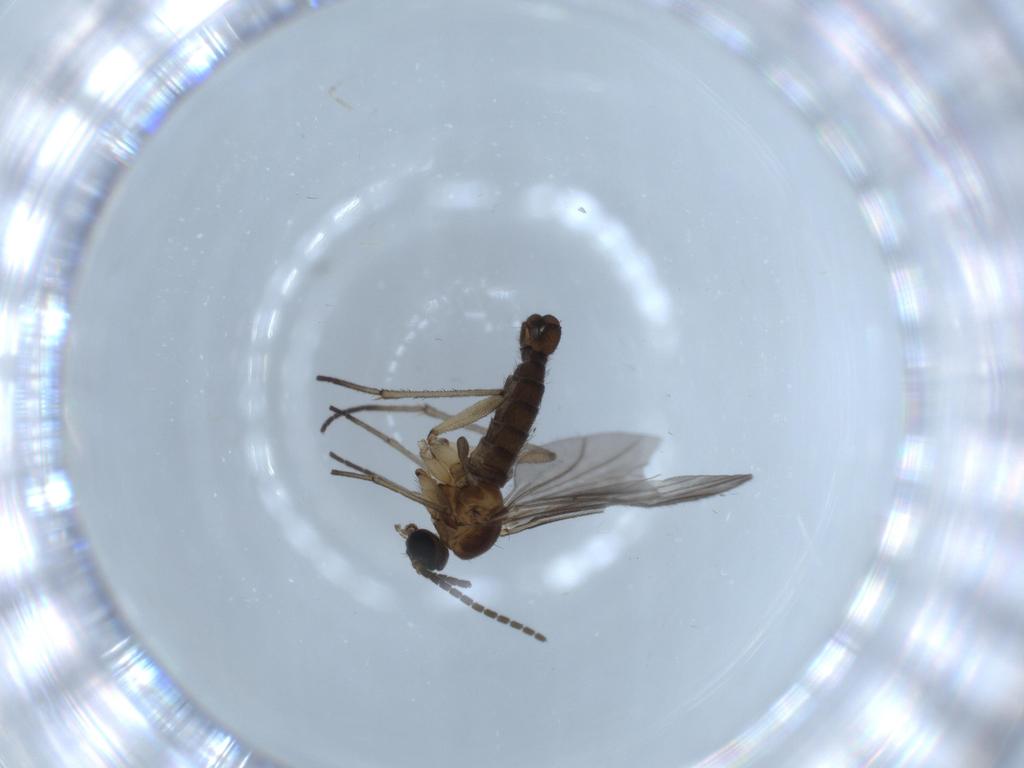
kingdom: Animalia
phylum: Arthropoda
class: Insecta
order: Diptera
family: Sciaridae
